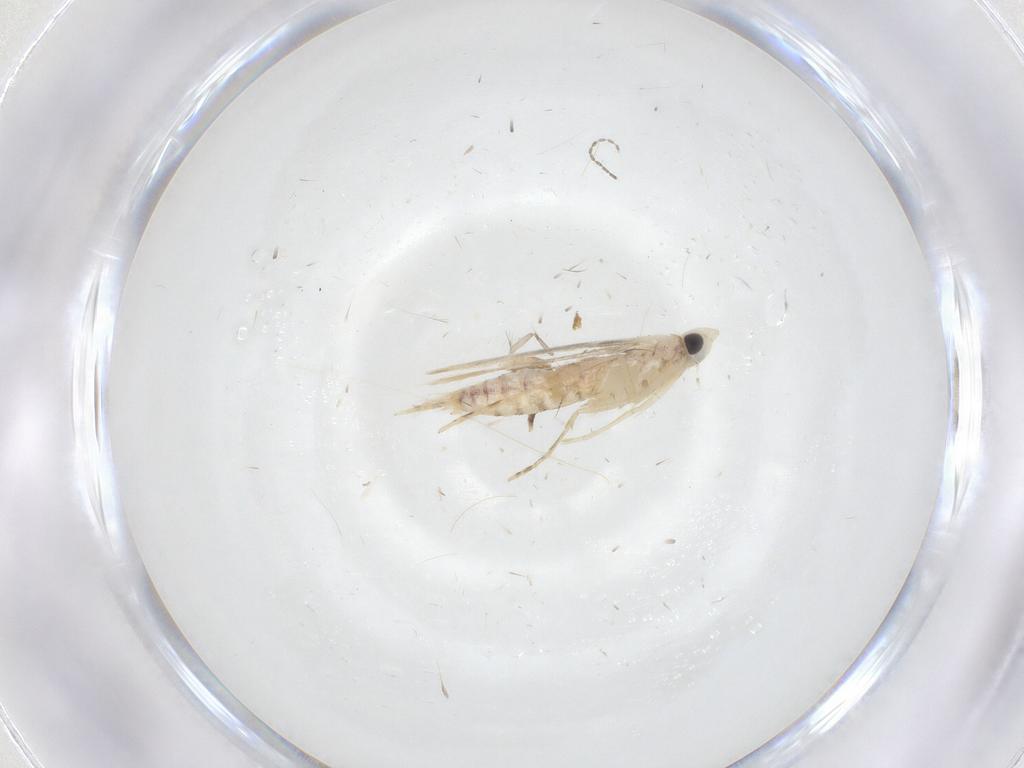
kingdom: Animalia
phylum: Arthropoda
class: Insecta
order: Lepidoptera
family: Tineidae
